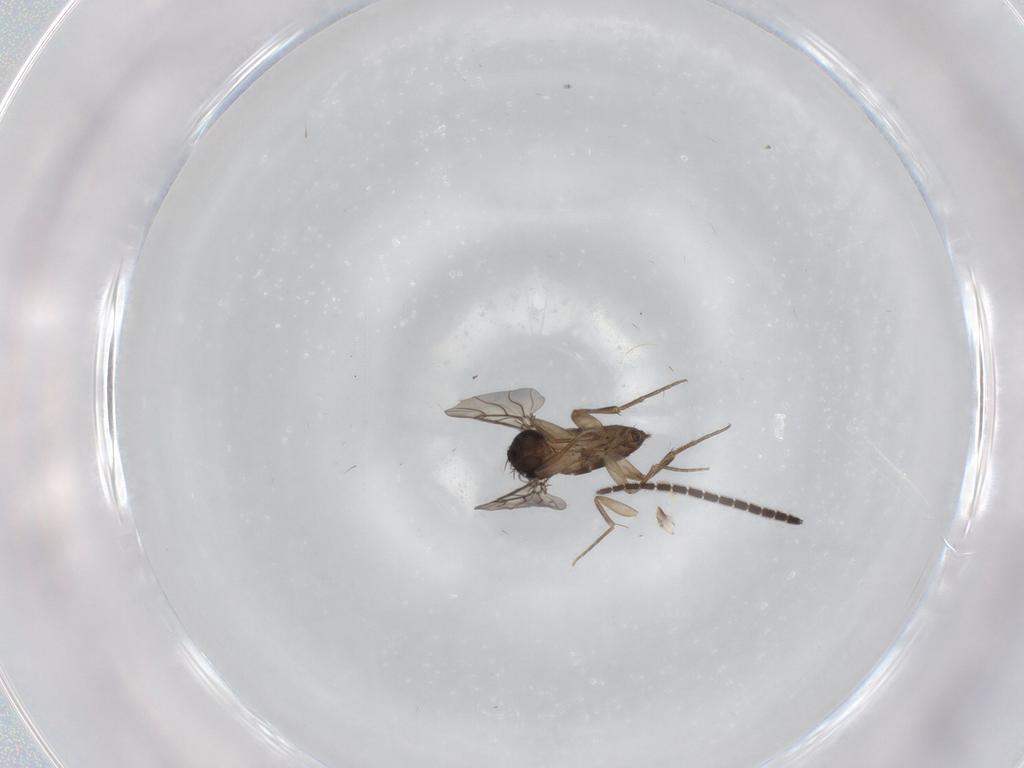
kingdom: Animalia
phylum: Arthropoda
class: Insecta
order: Diptera
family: Phoridae
